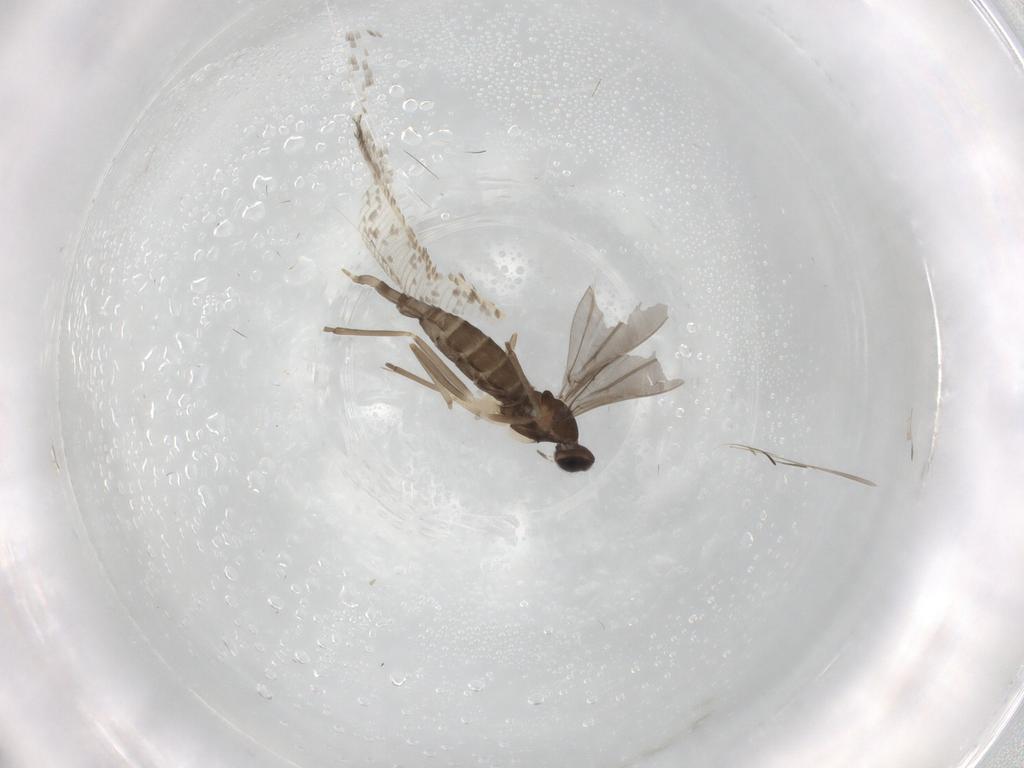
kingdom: Animalia
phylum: Arthropoda
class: Insecta
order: Diptera
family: Cecidomyiidae
